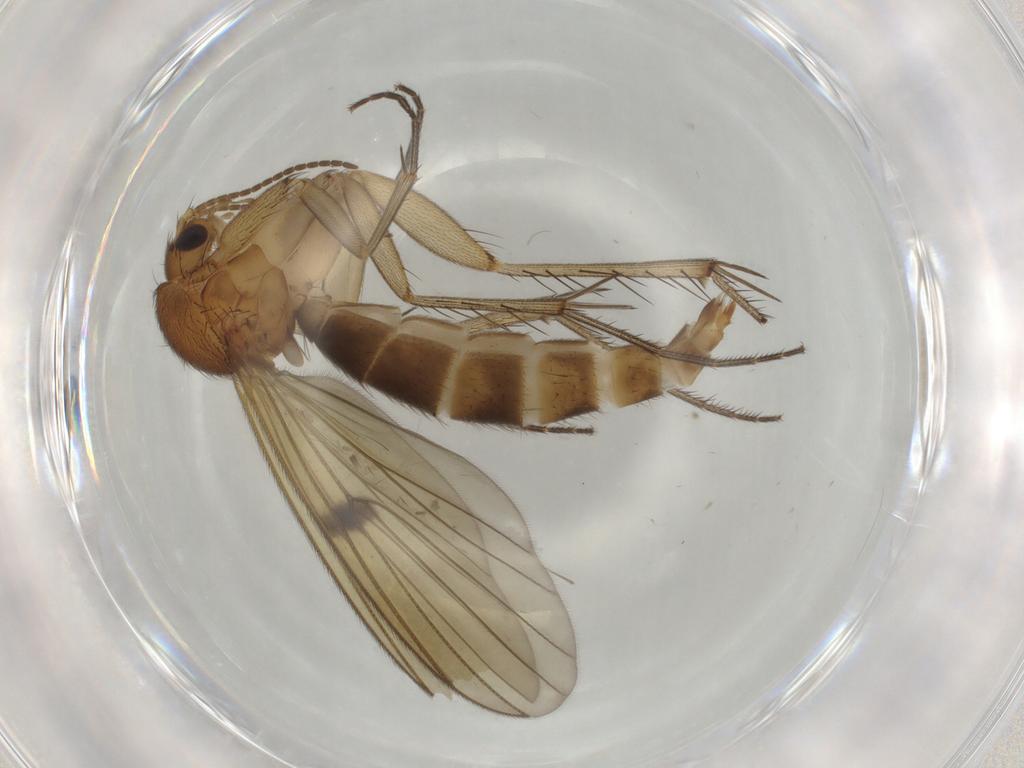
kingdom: Animalia
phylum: Arthropoda
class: Insecta
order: Diptera
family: Mycetophilidae
